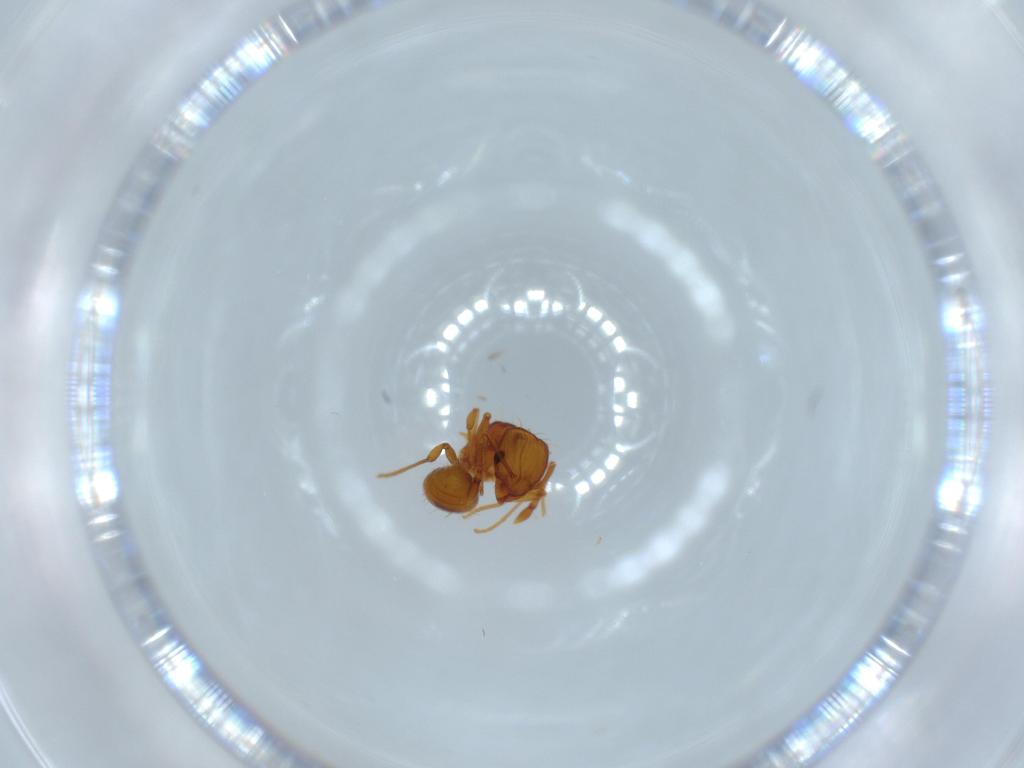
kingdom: Animalia
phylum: Arthropoda
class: Insecta
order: Hymenoptera
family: Formicidae
